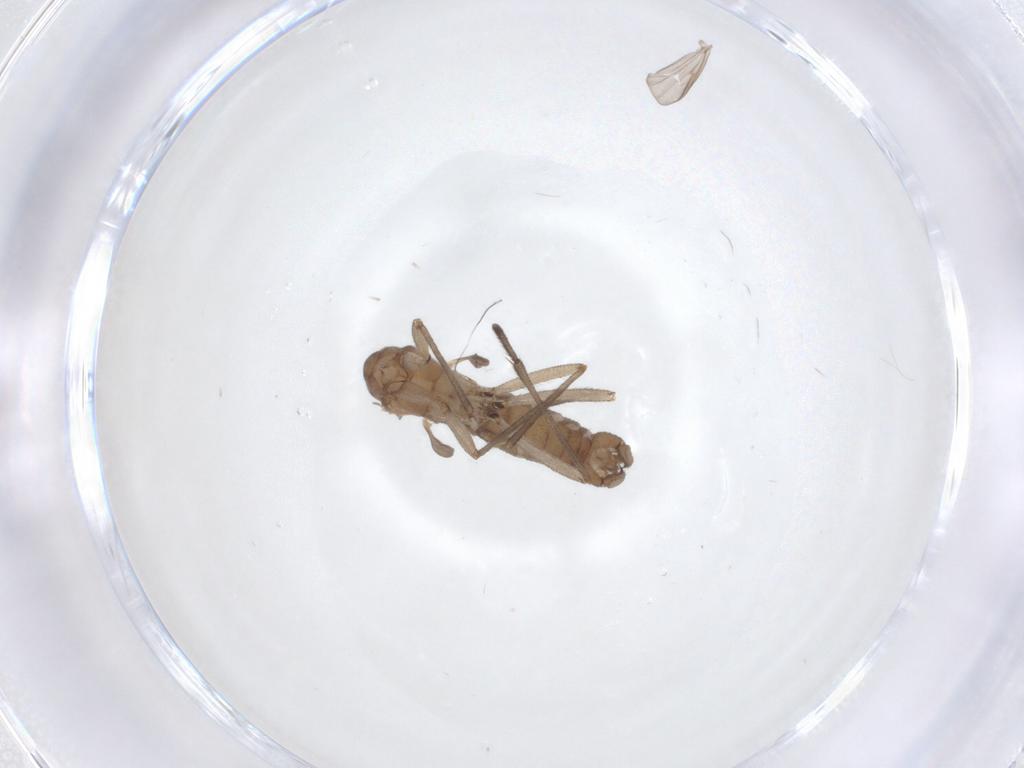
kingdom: Animalia
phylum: Arthropoda
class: Insecta
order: Diptera
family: Sciaridae
